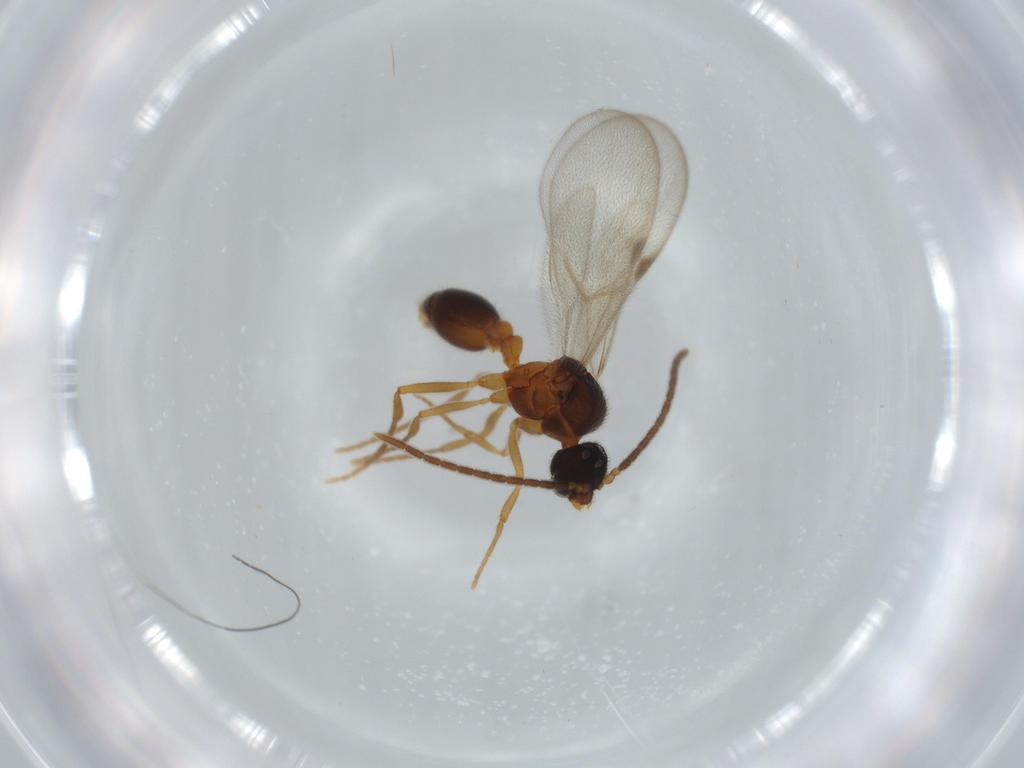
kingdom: Animalia
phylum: Arthropoda
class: Insecta
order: Hymenoptera
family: Formicidae
